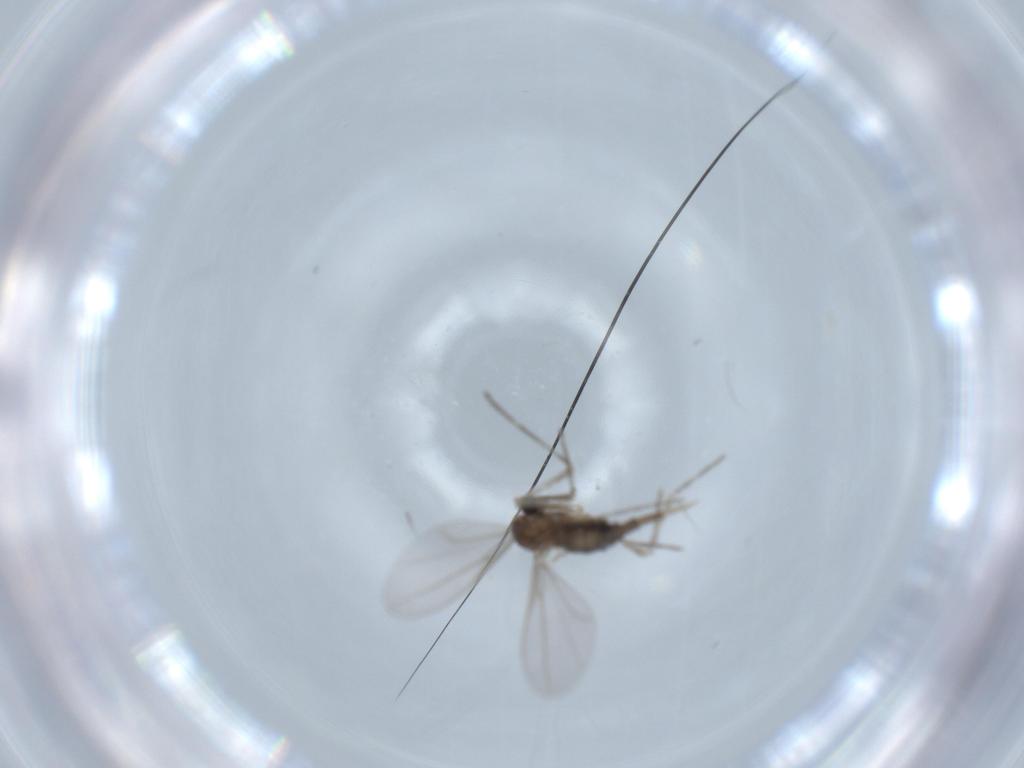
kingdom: Animalia
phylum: Arthropoda
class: Insecta
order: Diptera
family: Cecidomyiidae
